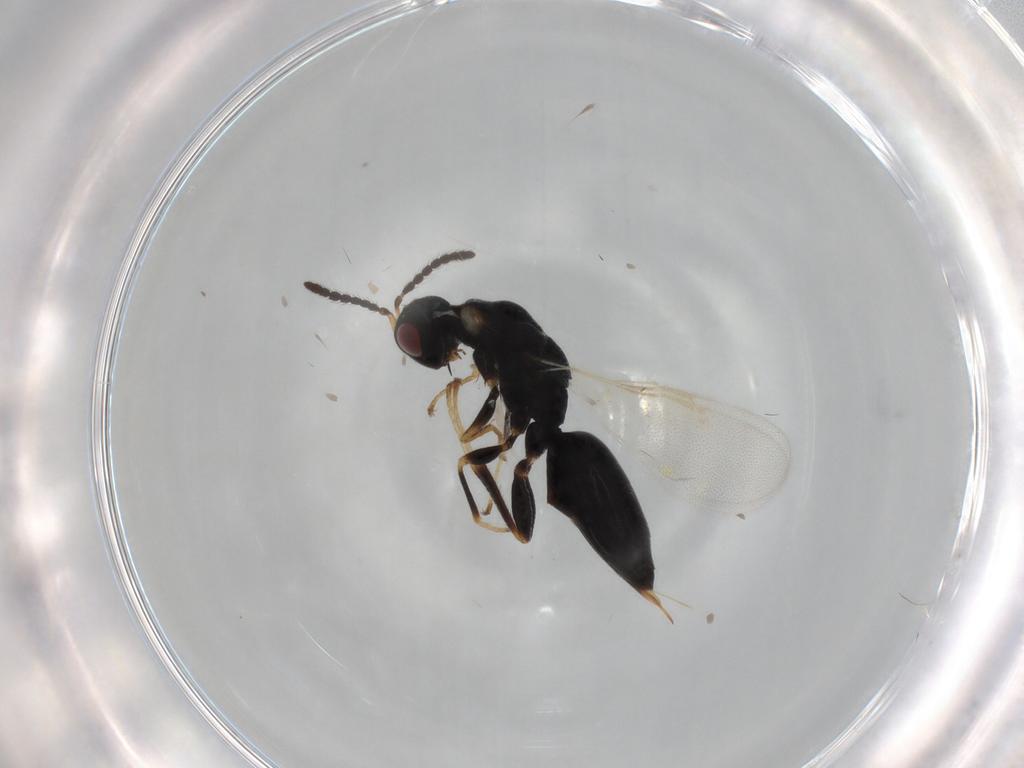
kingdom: Animalia
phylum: Arthropoda
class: Insecta
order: Hymenoptera
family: Eurytomidae
